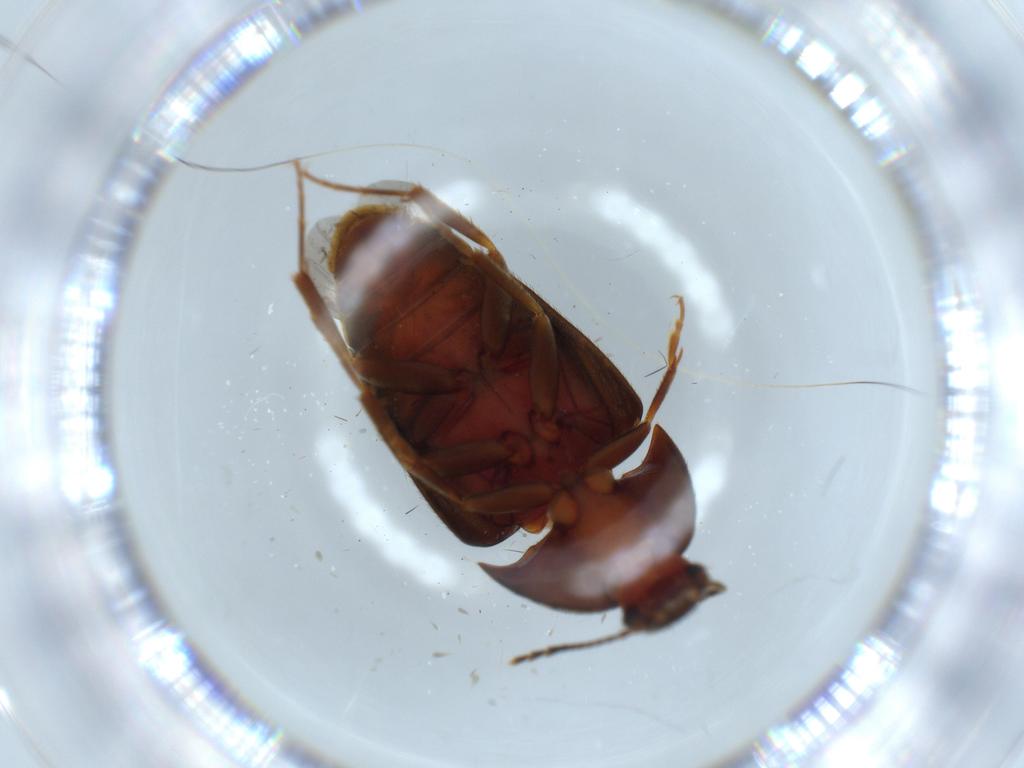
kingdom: Animalia
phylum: Arthropoda
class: Insecta
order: Coleoptera
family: Mycetophagidae
